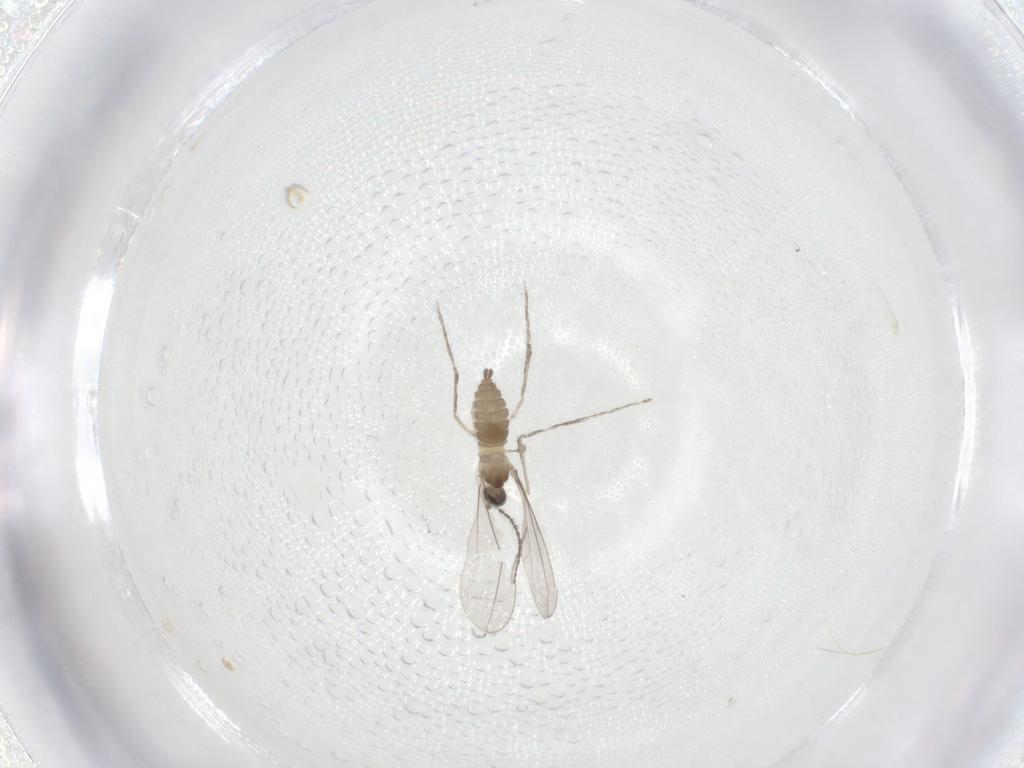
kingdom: Animalia
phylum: Arthropoda
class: Insecta
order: Diptera
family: Cecidomyiidae
